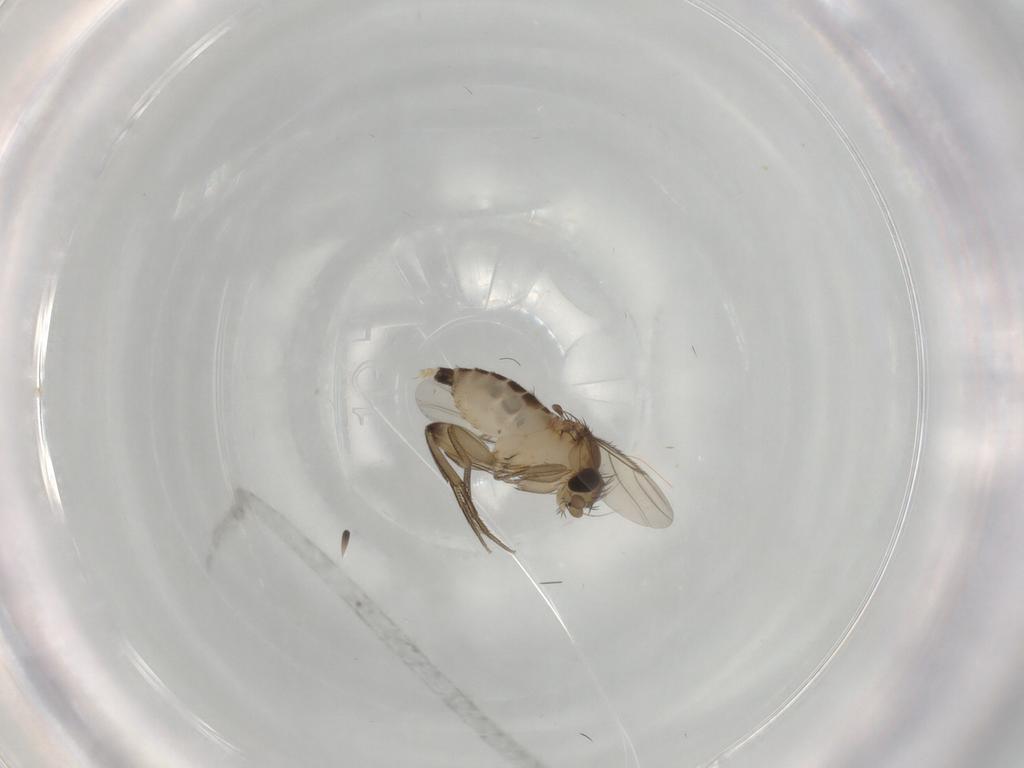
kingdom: Animalia
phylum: Arthropoda
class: Insecta
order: Diptera
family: Phoridae
